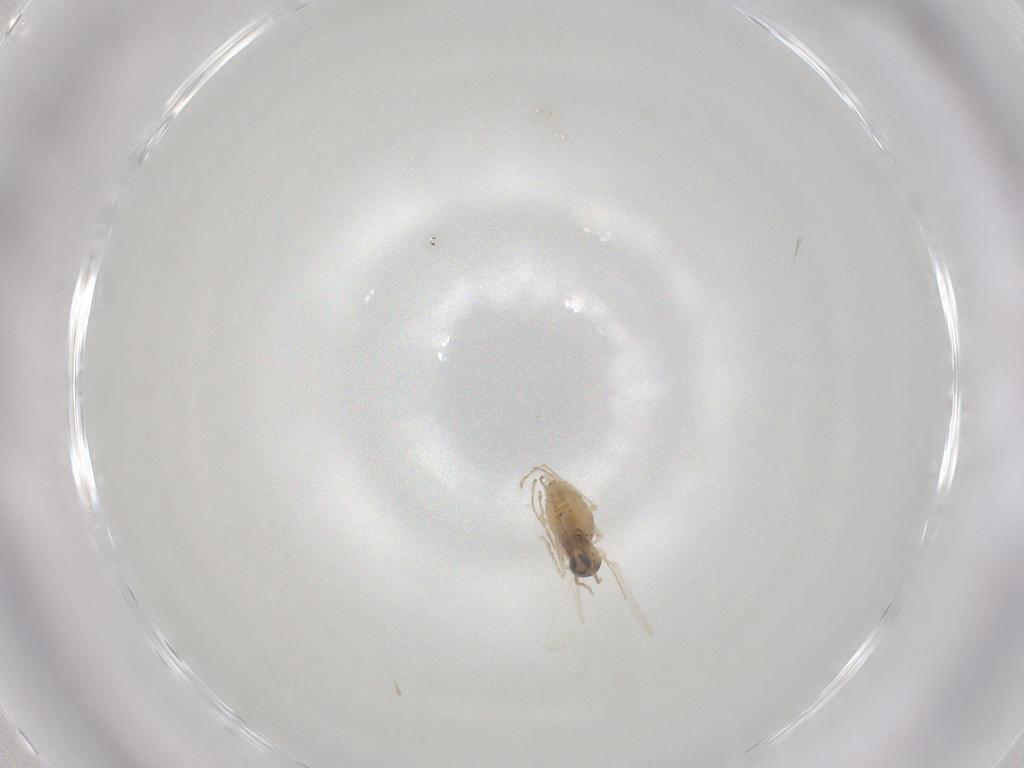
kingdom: Animalia
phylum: Arthropoda
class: Insecta
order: Diptera
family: Cecidomyiidae
